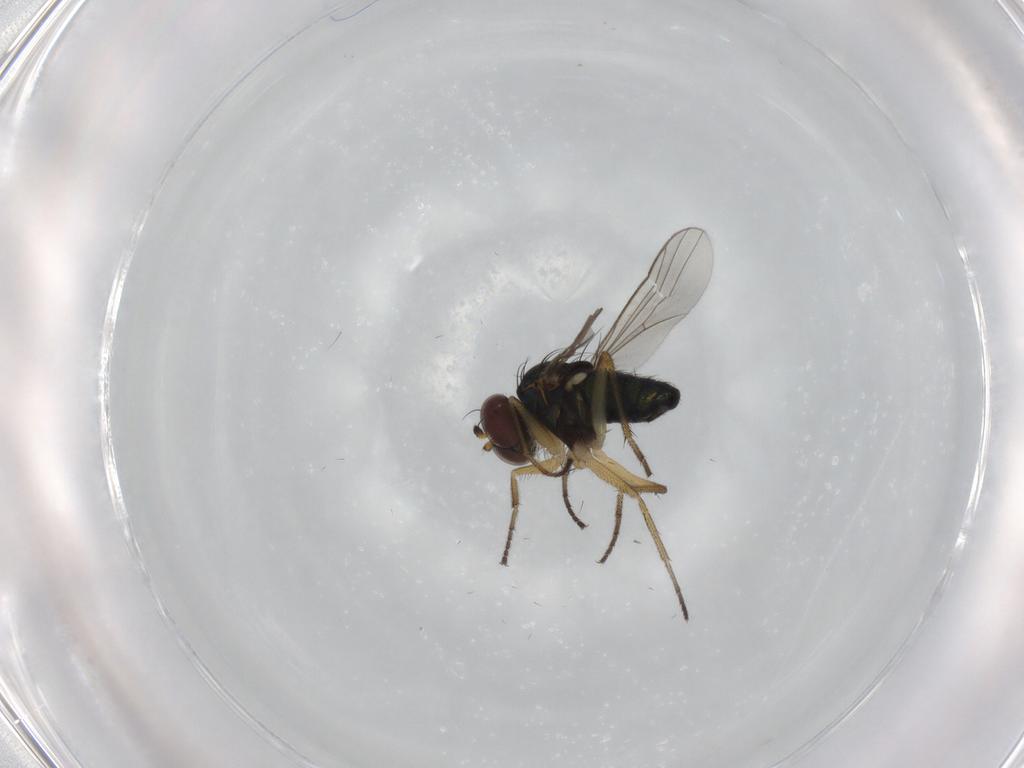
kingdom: Animalia
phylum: Arthropoda
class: Insecta
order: Diptera
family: Dolichopodidae
